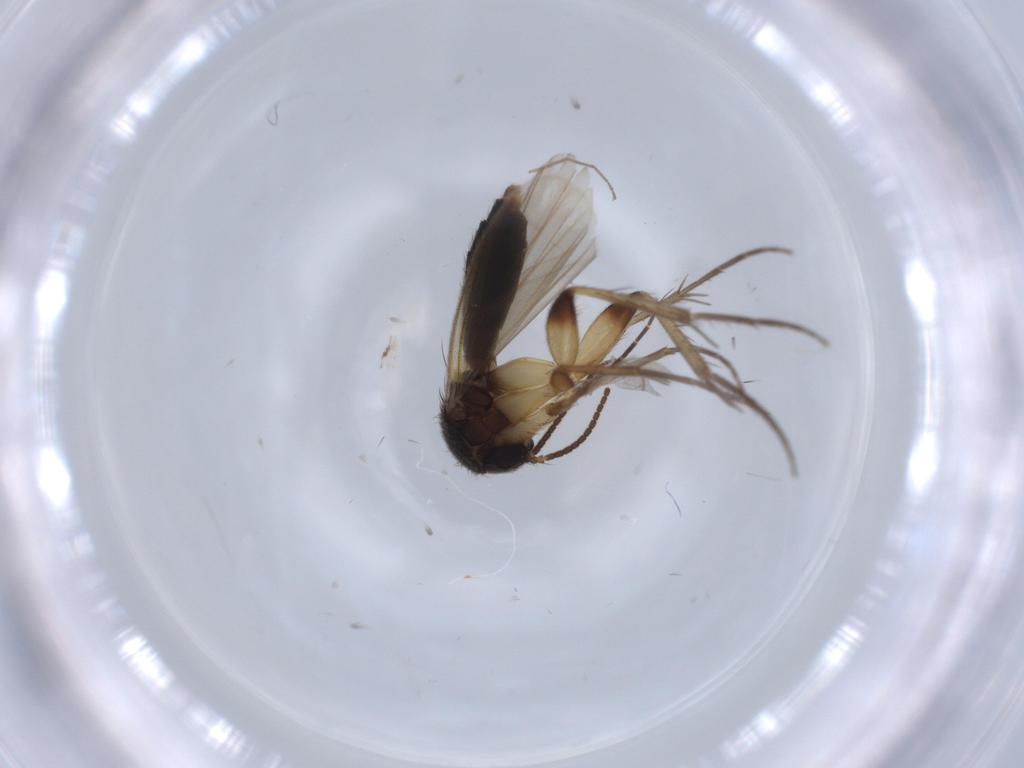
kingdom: Animalia
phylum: Arthropoda
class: Insecta
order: Diptera
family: Mycetophilidae
